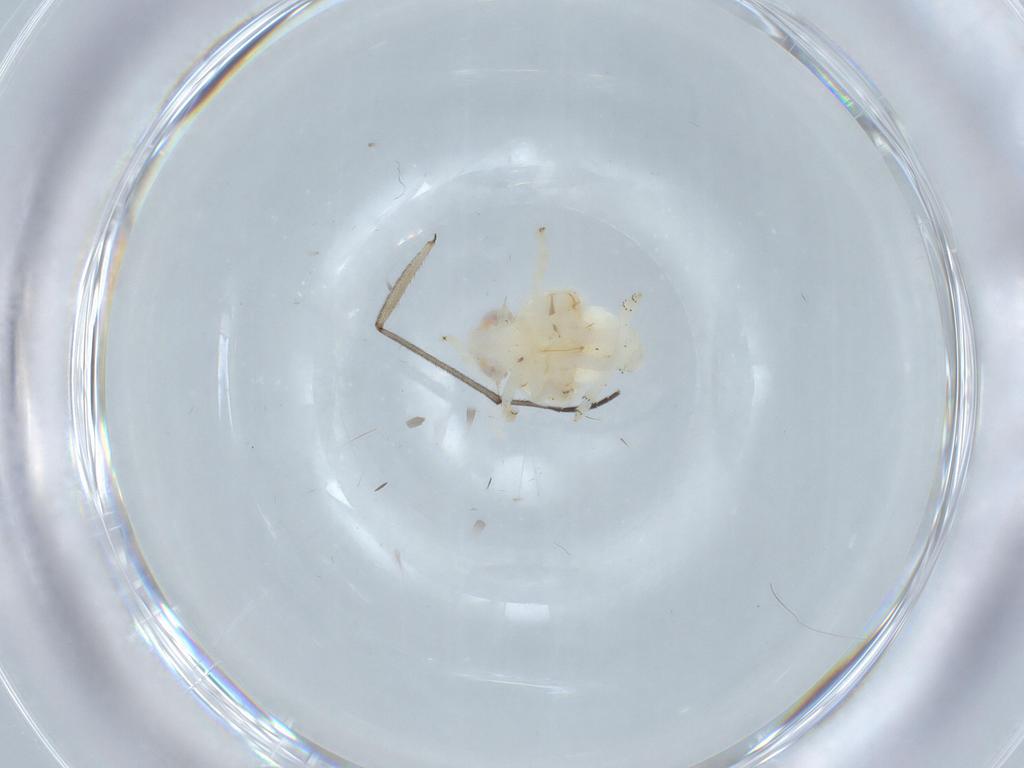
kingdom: Animalia
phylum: Arthropoda
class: Insecta
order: Hemiptera
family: Nogodinidae
